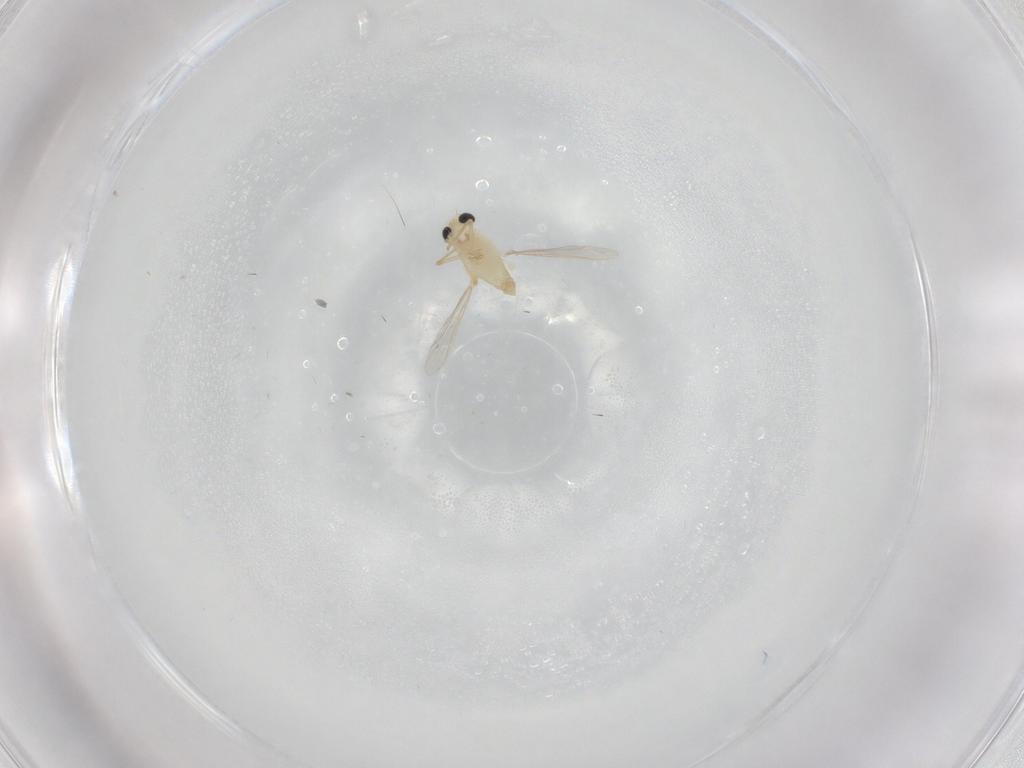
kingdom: Animalia
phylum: Arthropoda
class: Insecta
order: Diptera
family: Chironomidae
